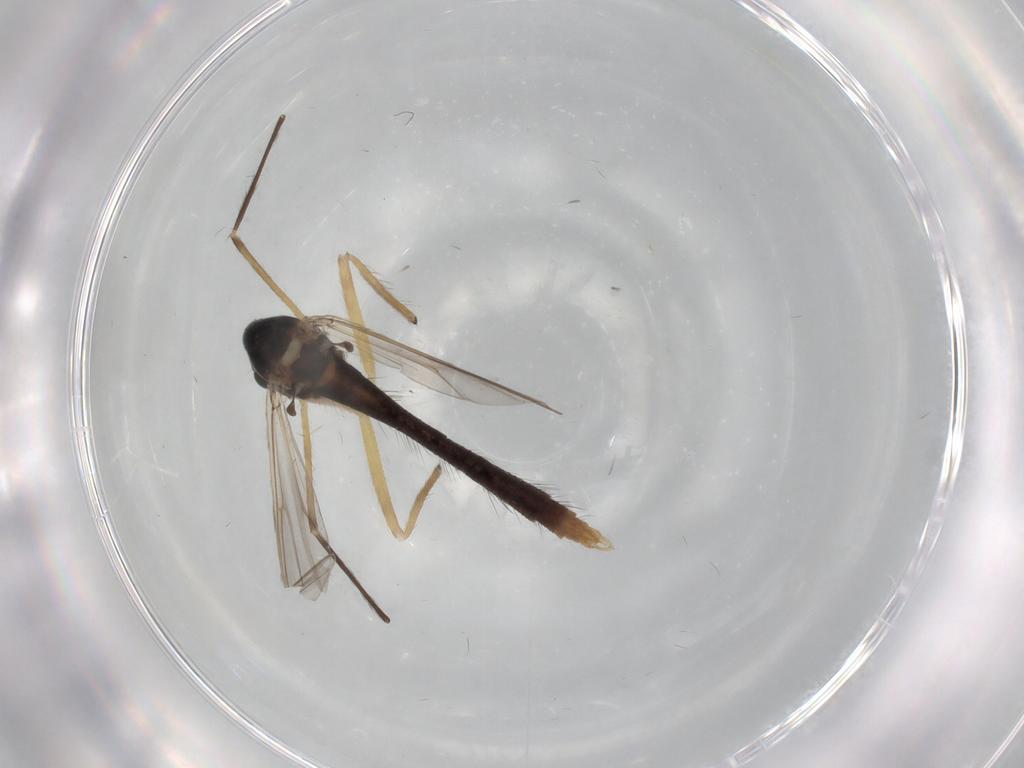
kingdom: Animalia
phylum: Arthropoda
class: Insecta
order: Diptera
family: Chironomidae
